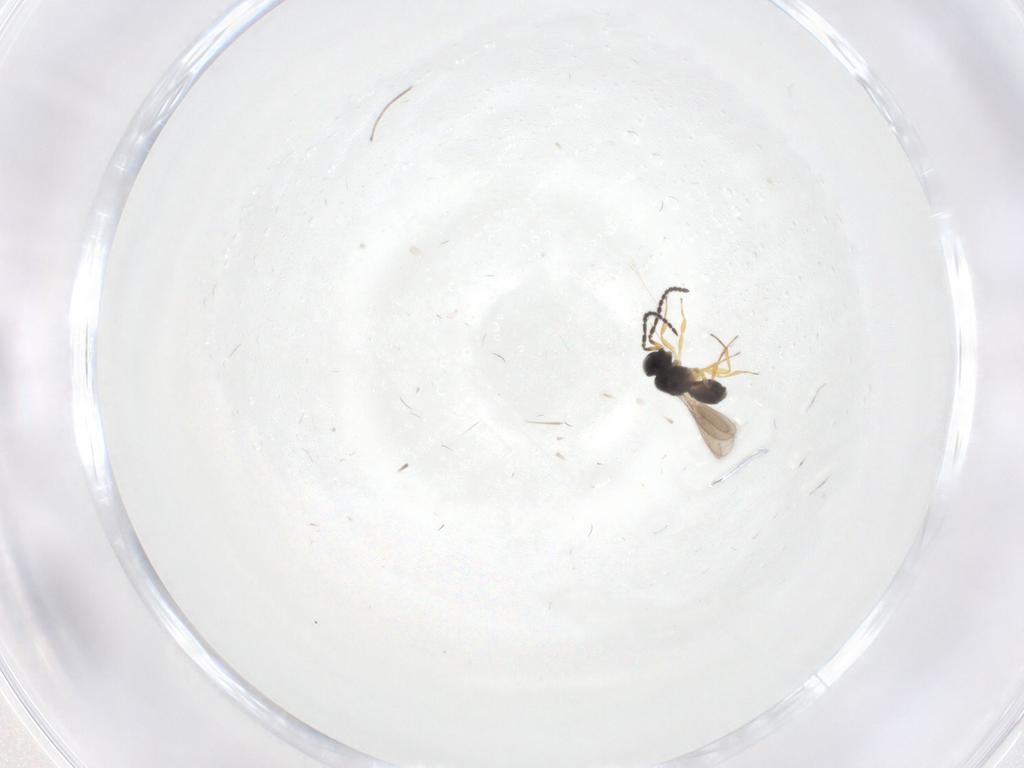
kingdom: Animalia
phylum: Arthropoda
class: Insecta
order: Hymenoptera
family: Scelionidae
